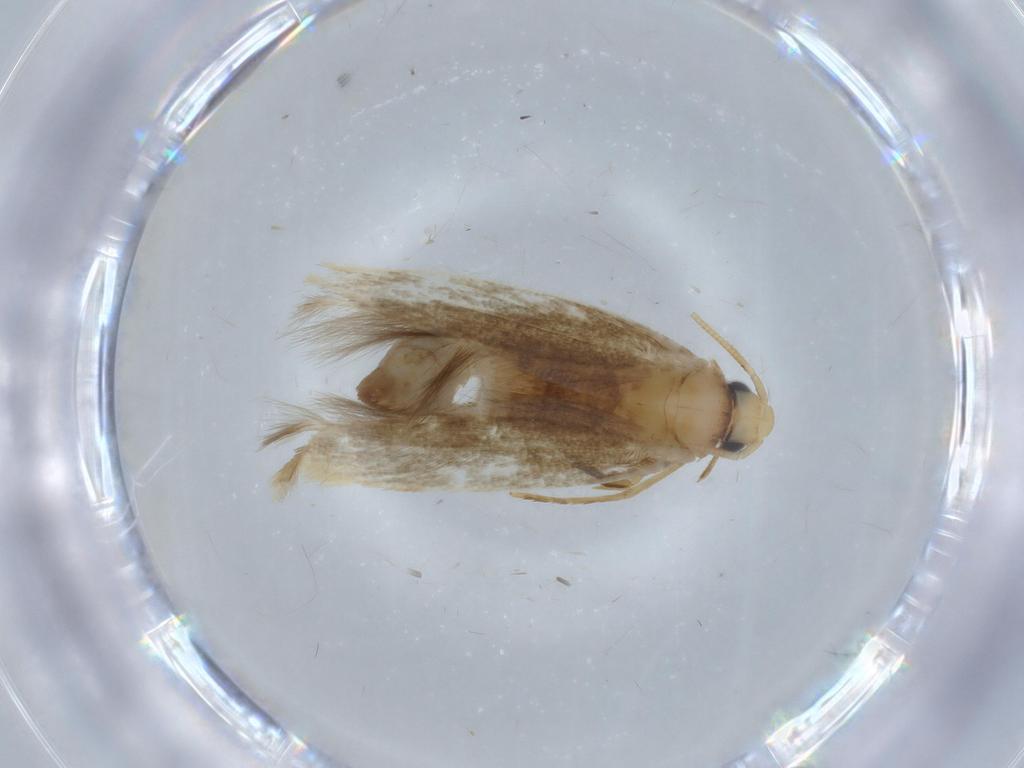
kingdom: Animalia
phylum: Arthropoda
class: Insecta
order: Lepidoptera
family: Tineidae
